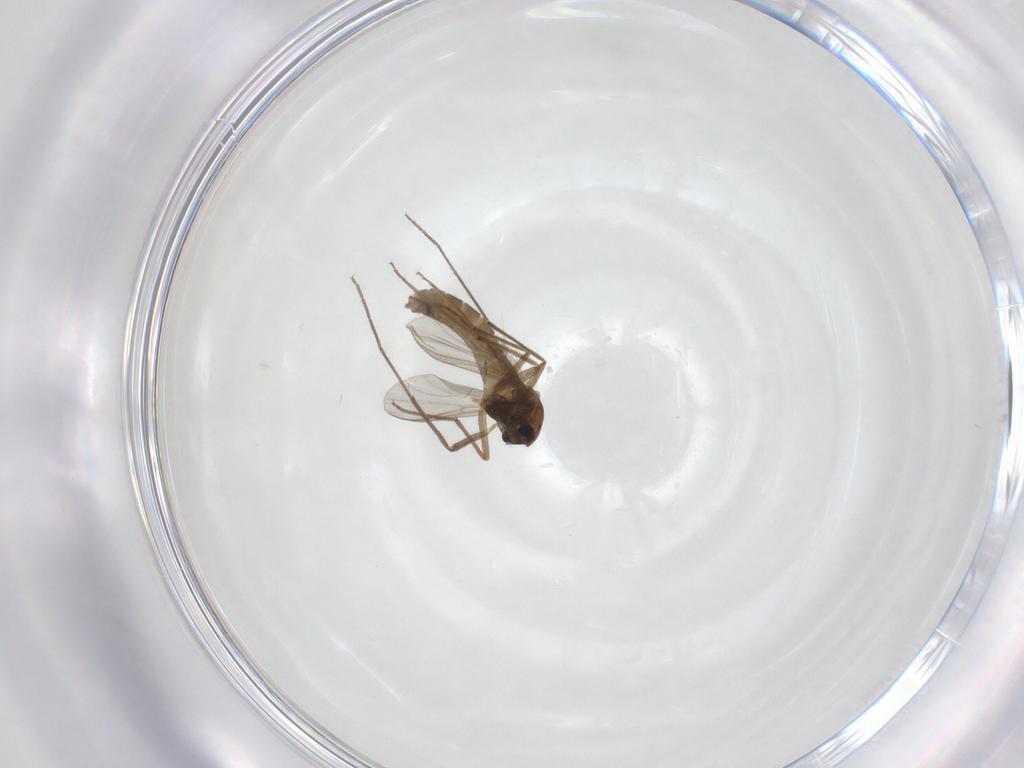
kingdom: Animalia
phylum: Arthropoda
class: Insecta
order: Diptera
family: Chironomidae
